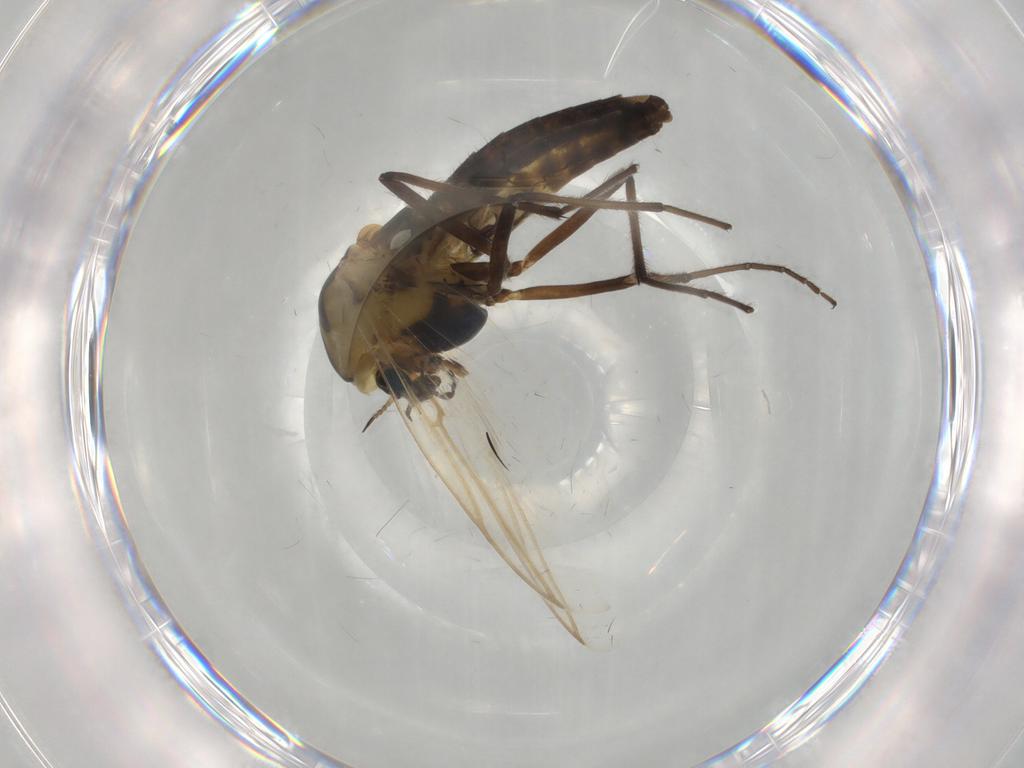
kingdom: Animalia
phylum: Arthropoda
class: Insecta
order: Diptera
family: Chironomidae
